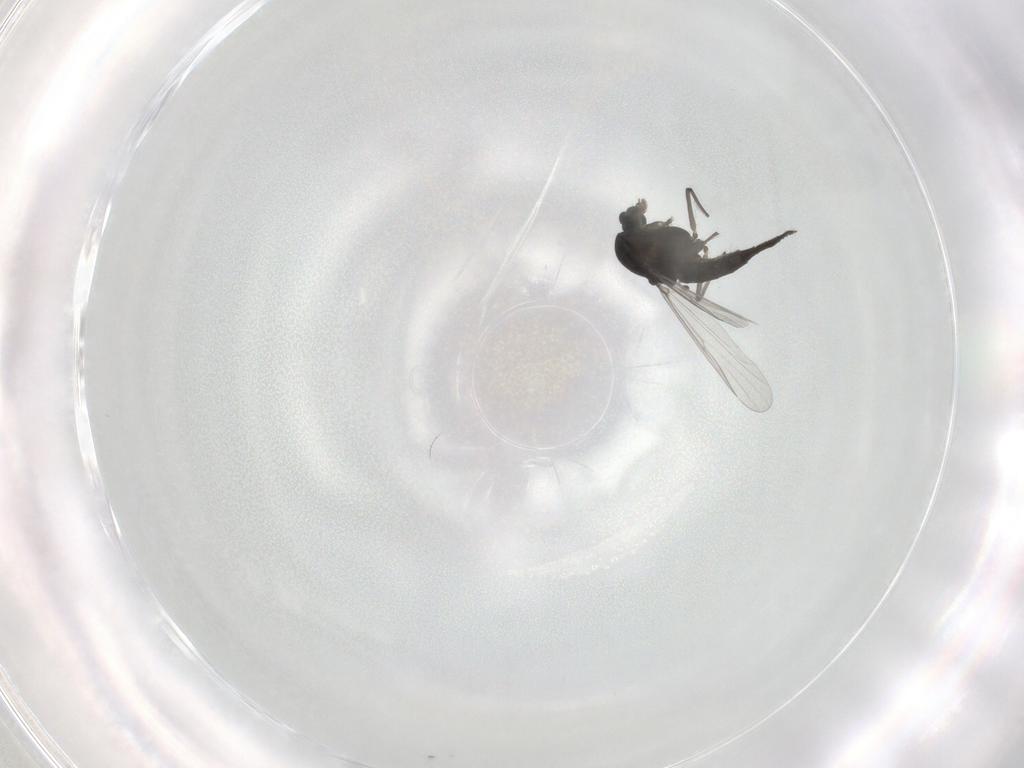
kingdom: Animalia
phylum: Arthropoda
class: Insecta
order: Diptera
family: Chironomidae
